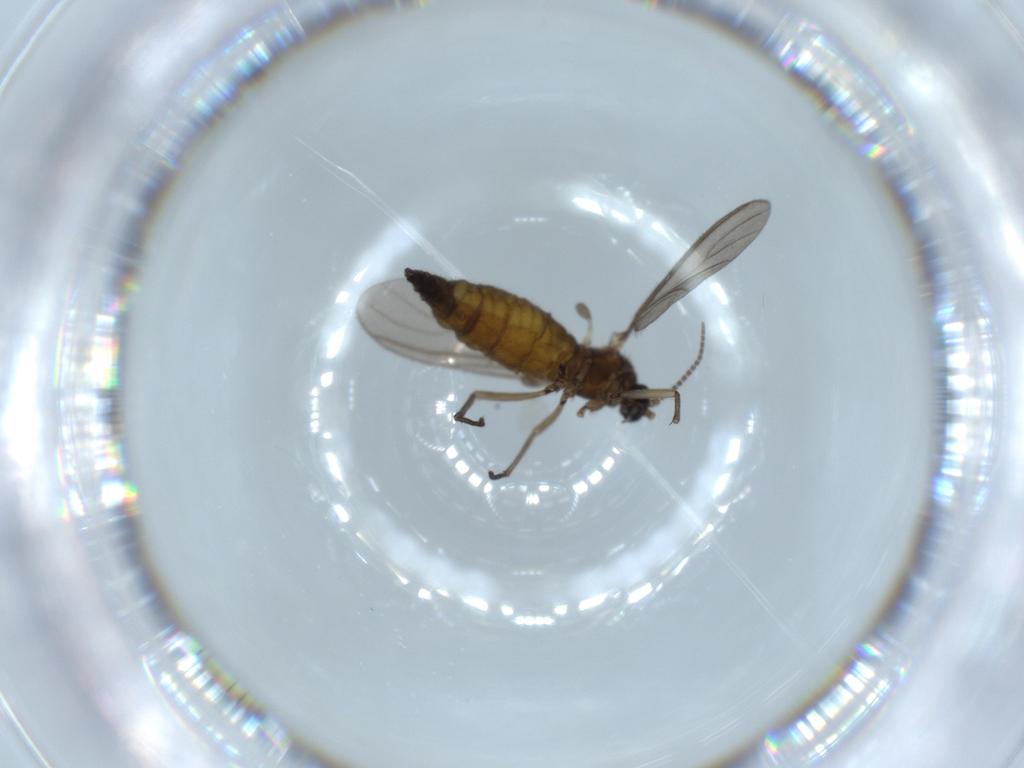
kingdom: Animalia
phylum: Arthropoda
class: Insecta
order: Diptera
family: Sciaridae
